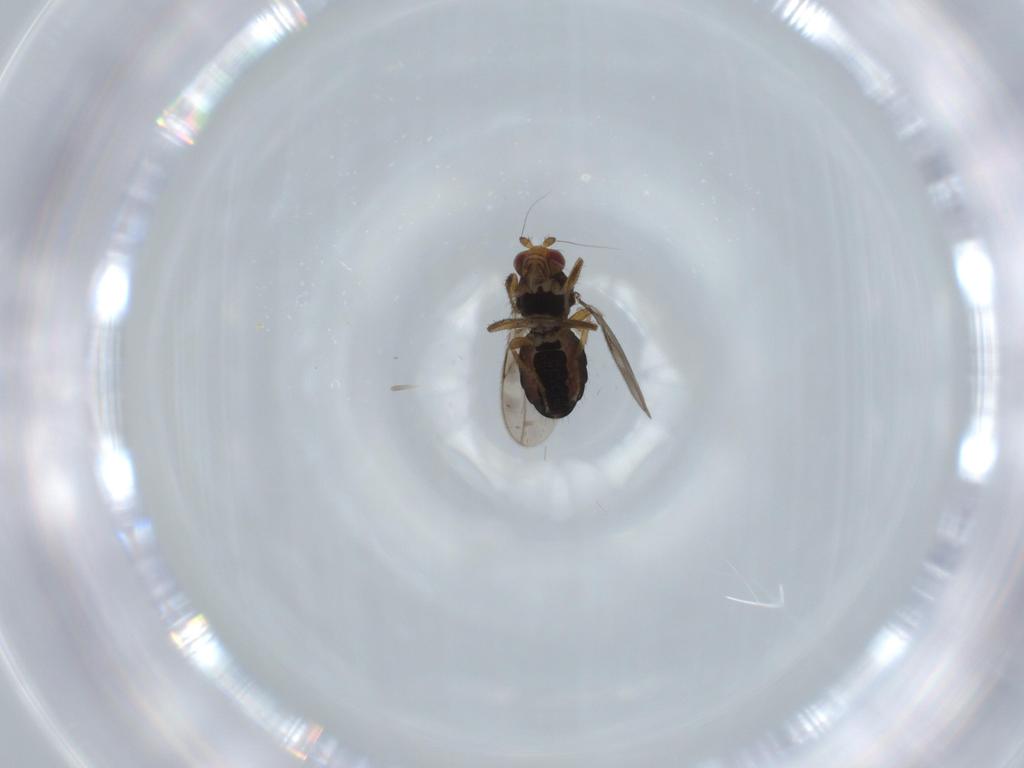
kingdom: Animalia
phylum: Arthropoda
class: Insecta
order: Diptera
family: Sphaeroceridae
